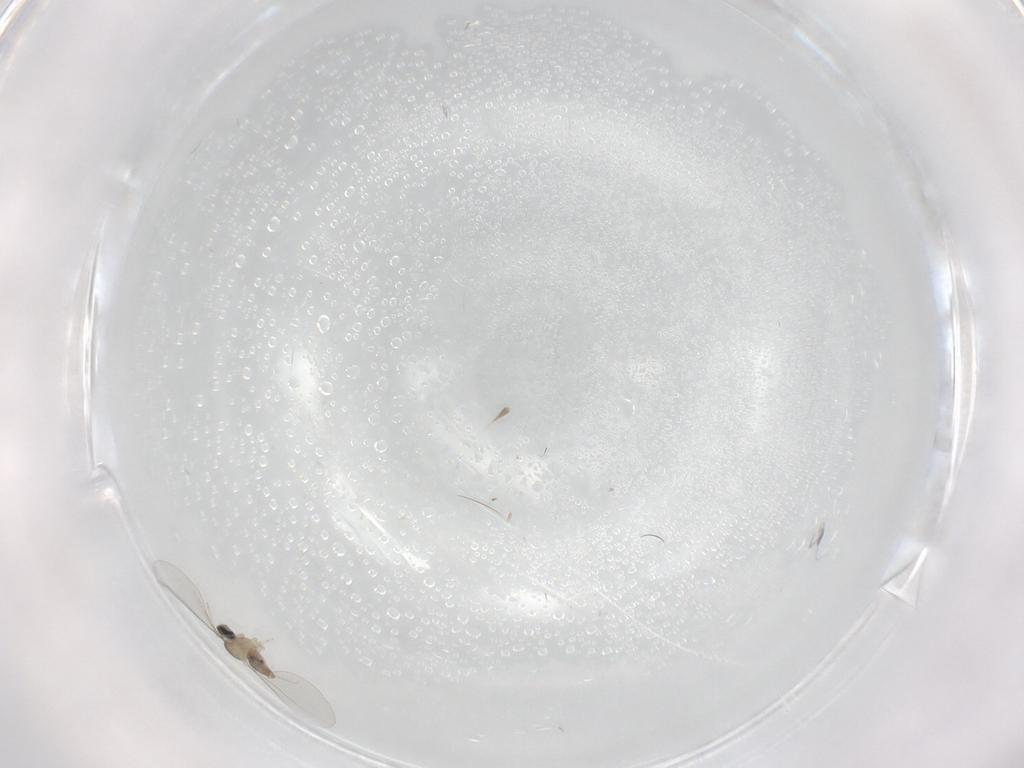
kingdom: Animalia
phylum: Arthropoda
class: Insecta
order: Diptera
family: Cecidomyiidae
